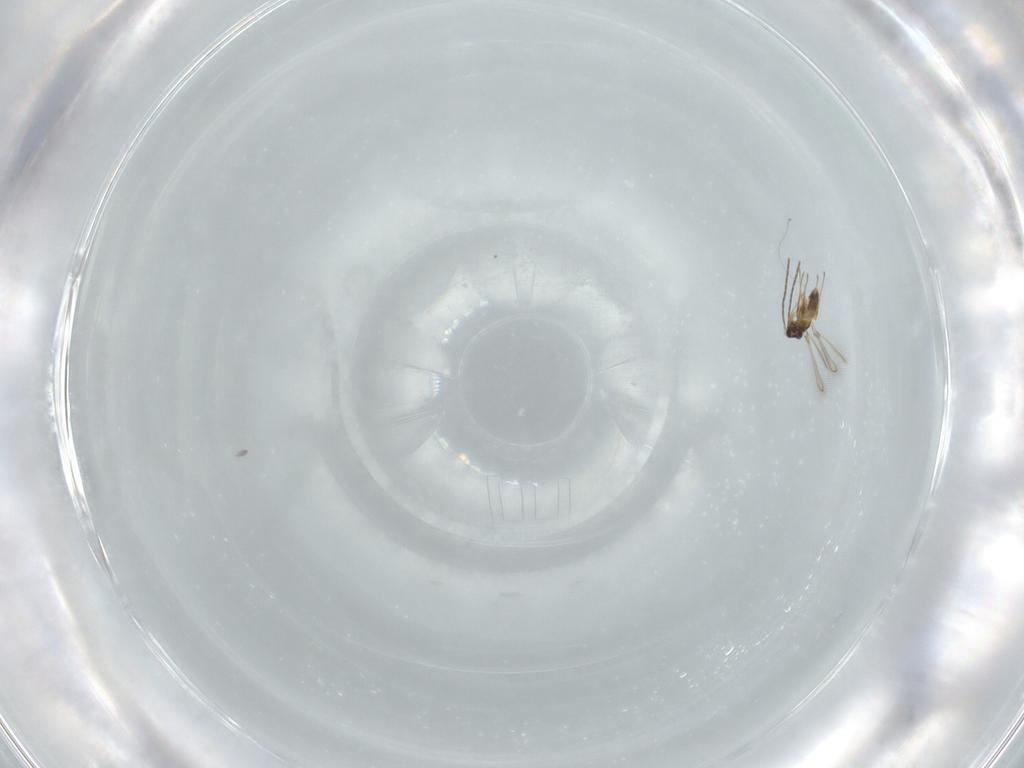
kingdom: Animalia
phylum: Arthropoda
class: Insecta
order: Hymenoptera
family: Mymaridae
